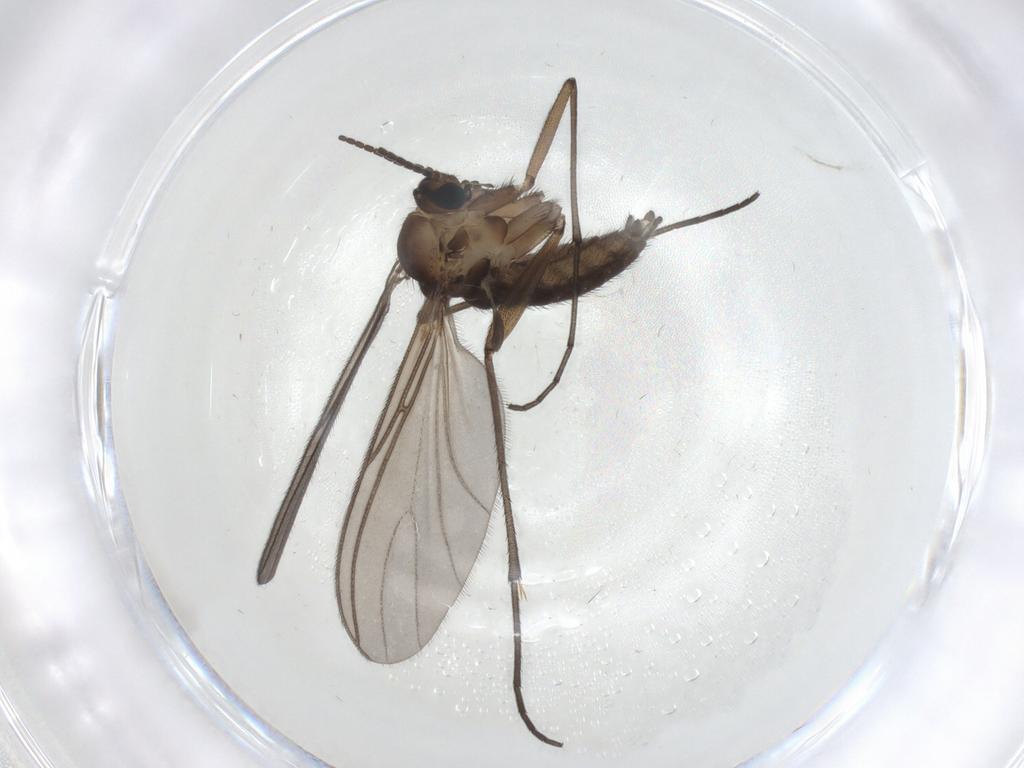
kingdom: Animalia
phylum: Arthropoda
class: Insecta
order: Diptera
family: Sciaridae
